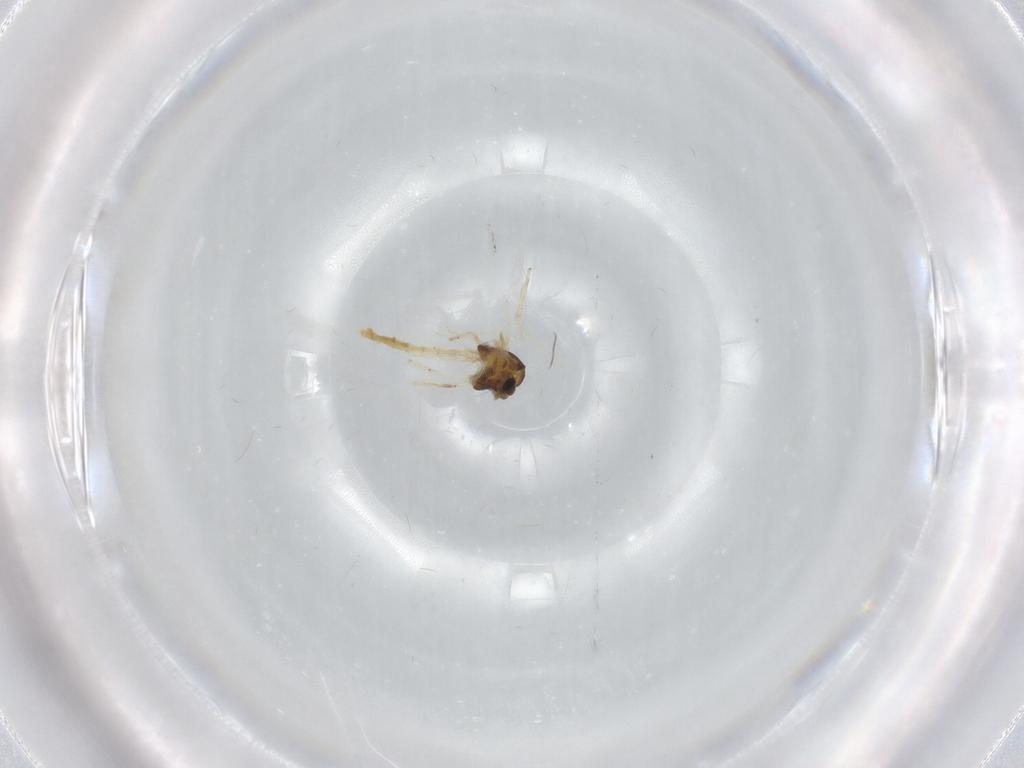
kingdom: Animalia
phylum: Arthropoda
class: Insecta
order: Diptera
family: Chironomidae
